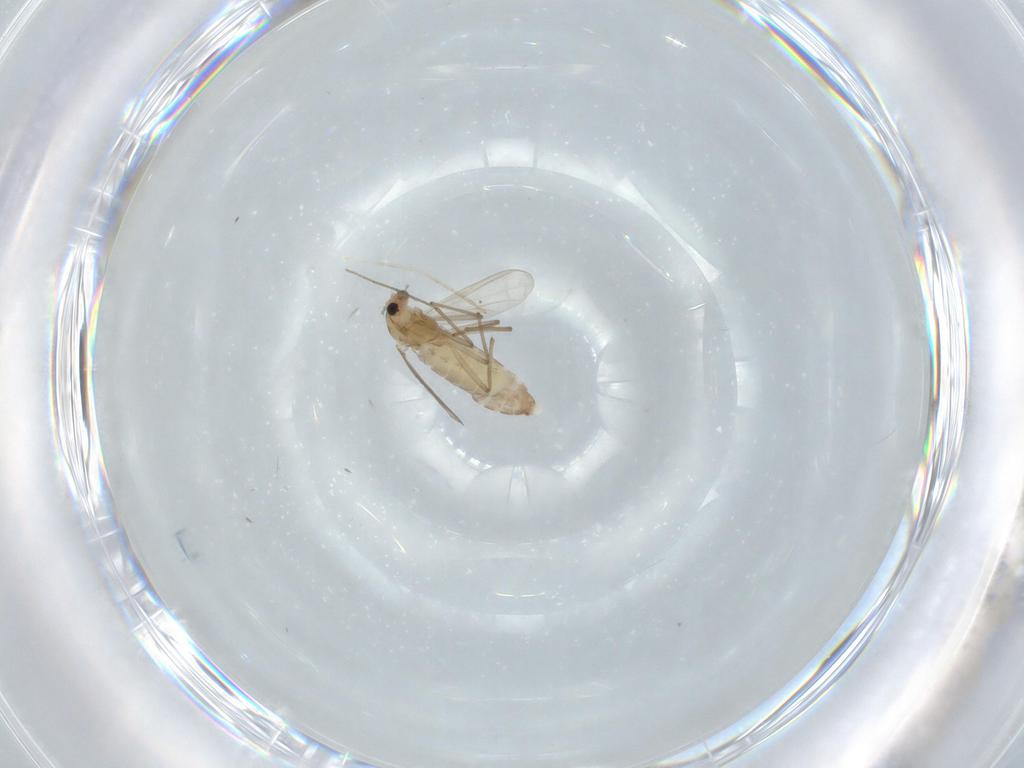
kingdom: Animalia
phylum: Arthropoda
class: Insecta
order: Diptera
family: Chironomidae
